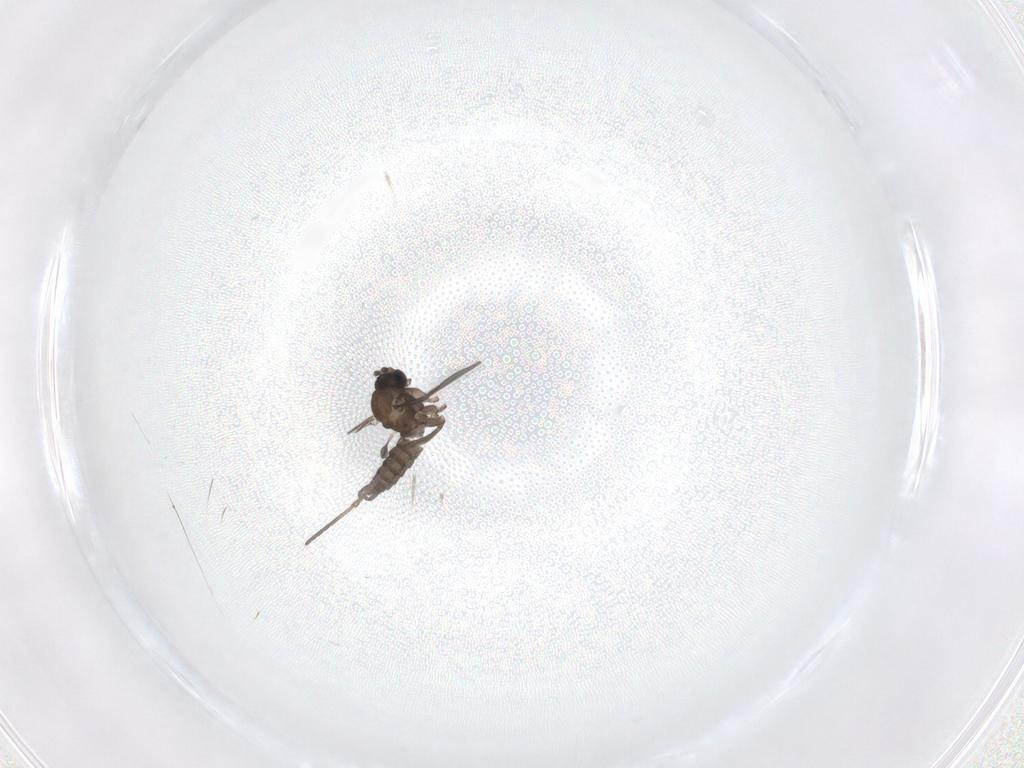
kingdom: Animalia
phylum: Arthropoda
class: Insecta
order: Diptera
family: Sciaridae
